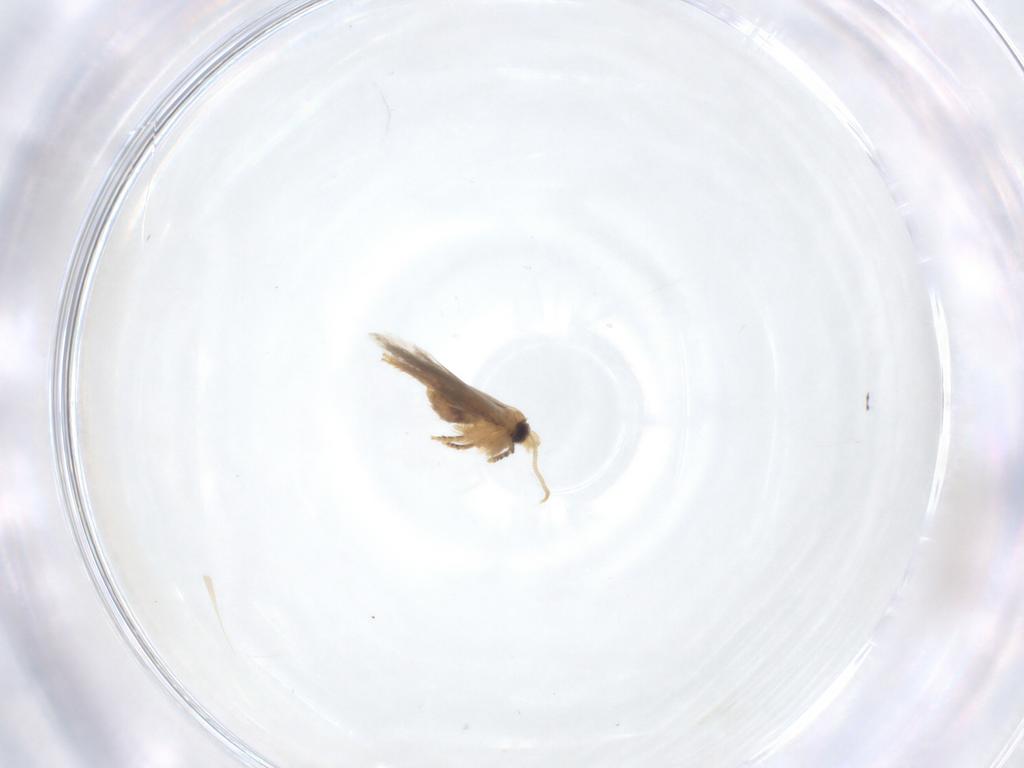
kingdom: Animalia
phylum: Arthropoda
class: Insecta
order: Lepidoptera
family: Nepticulidae
